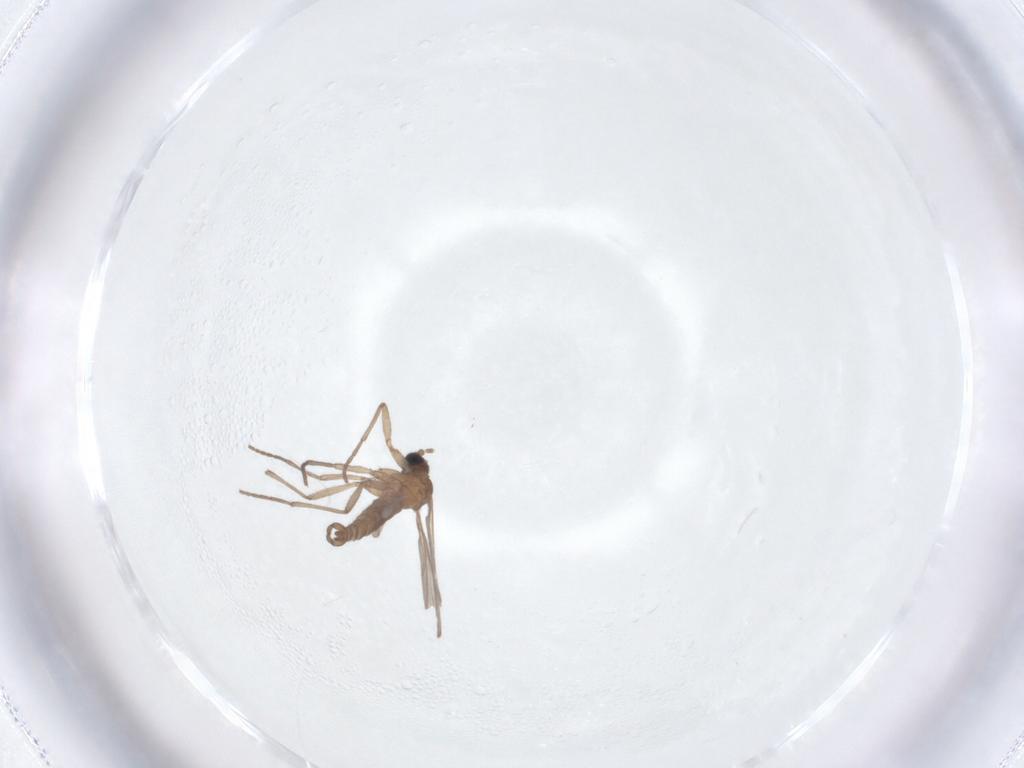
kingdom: Animalia
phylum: Arthropoda
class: Insecta
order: Diptera
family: Sciaridae
